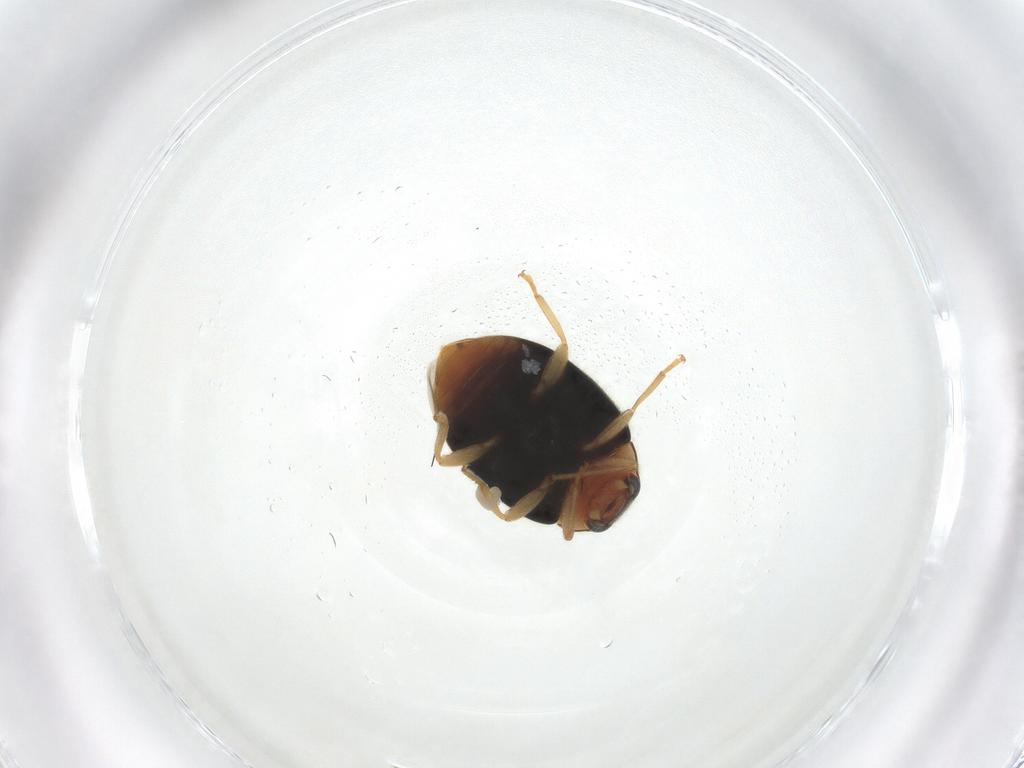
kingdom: Animalia
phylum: Arthropoda
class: Insecta
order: Coleoptera
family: Coccinellidae
